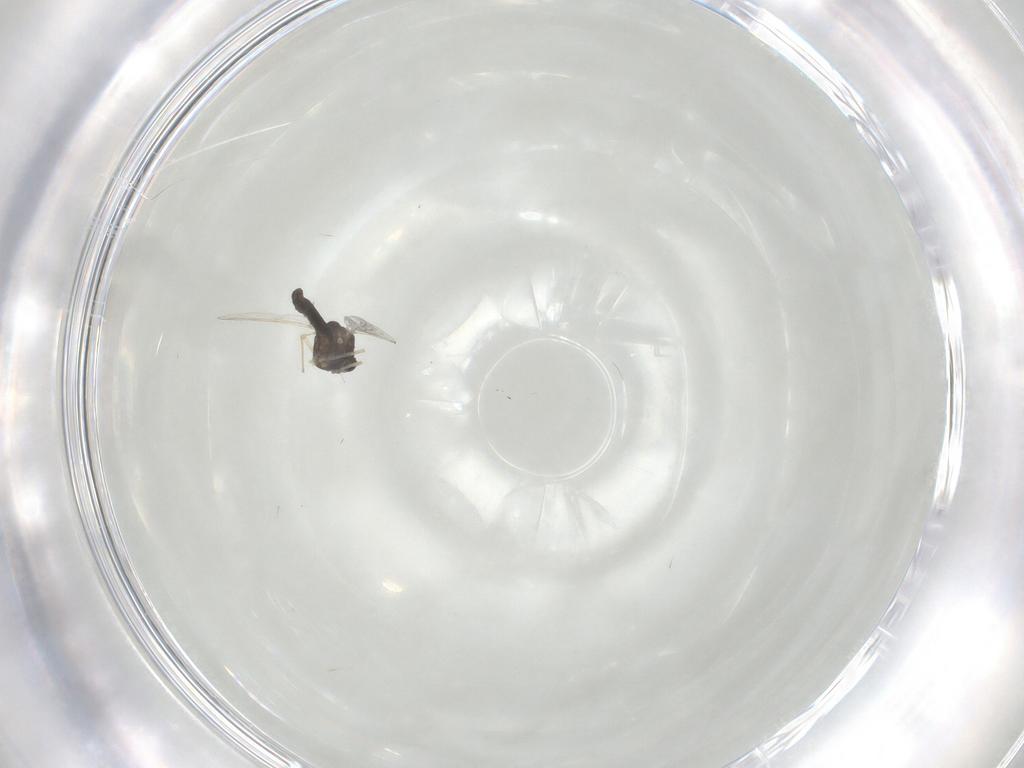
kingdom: Animalia
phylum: Arthropoda
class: Insecta
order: Diptera
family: Chironomidae
